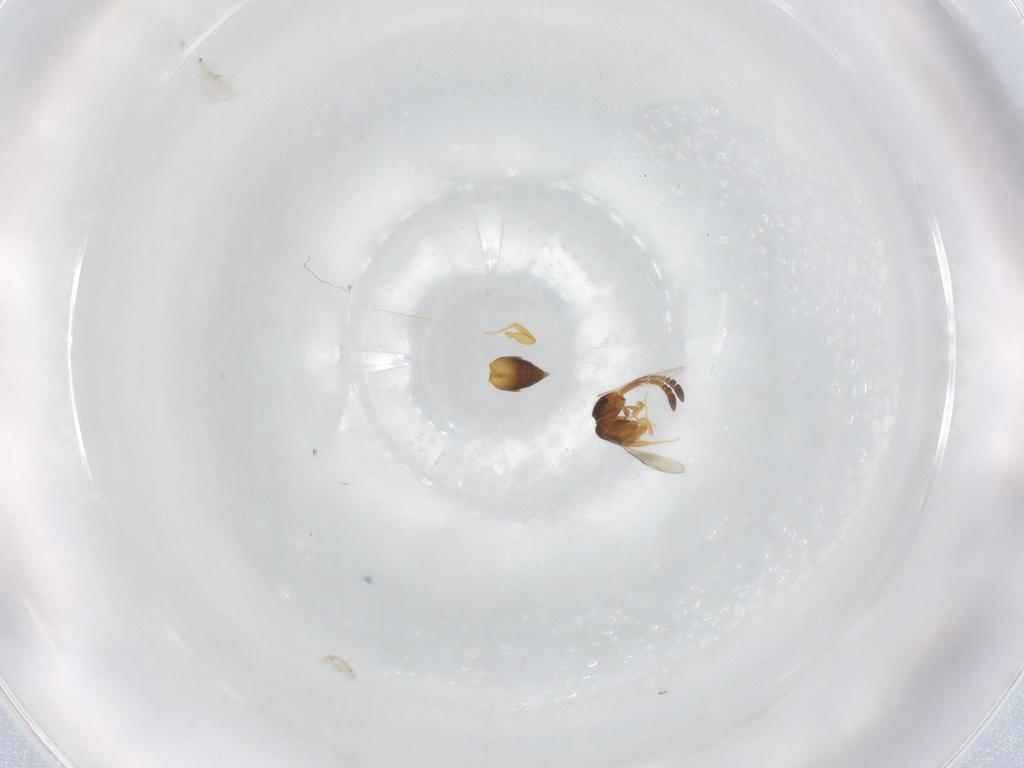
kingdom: Animalia
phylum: Arthropoda
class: Insecta
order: Hymenoptera
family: Ceraphronidae
